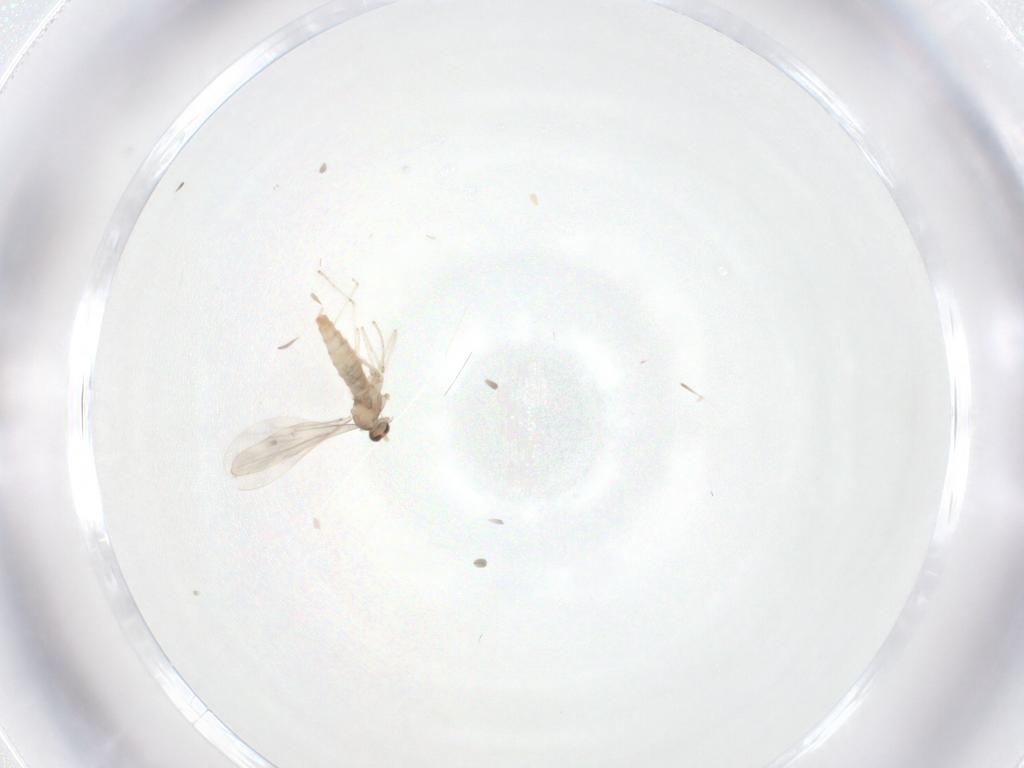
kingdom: Animalia
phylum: Arthropoda
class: Insecta
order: Diptera
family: Cecidomyiidae
